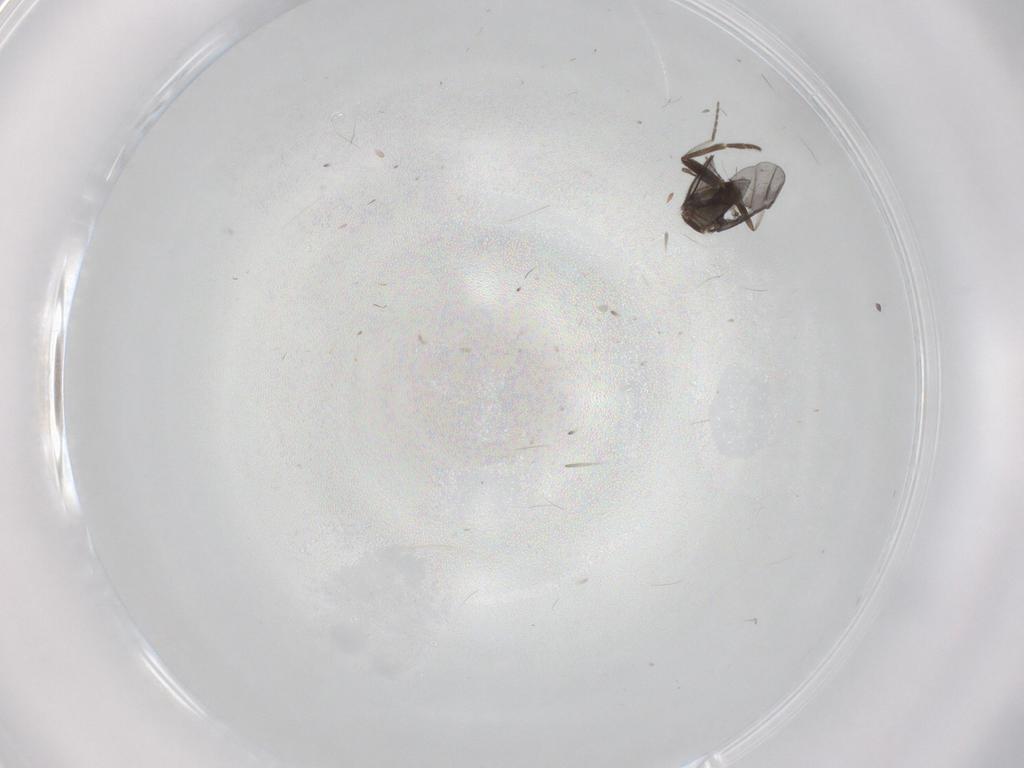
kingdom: Animalia
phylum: Arthropoda
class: Insecta
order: Diptera
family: Phoridae
